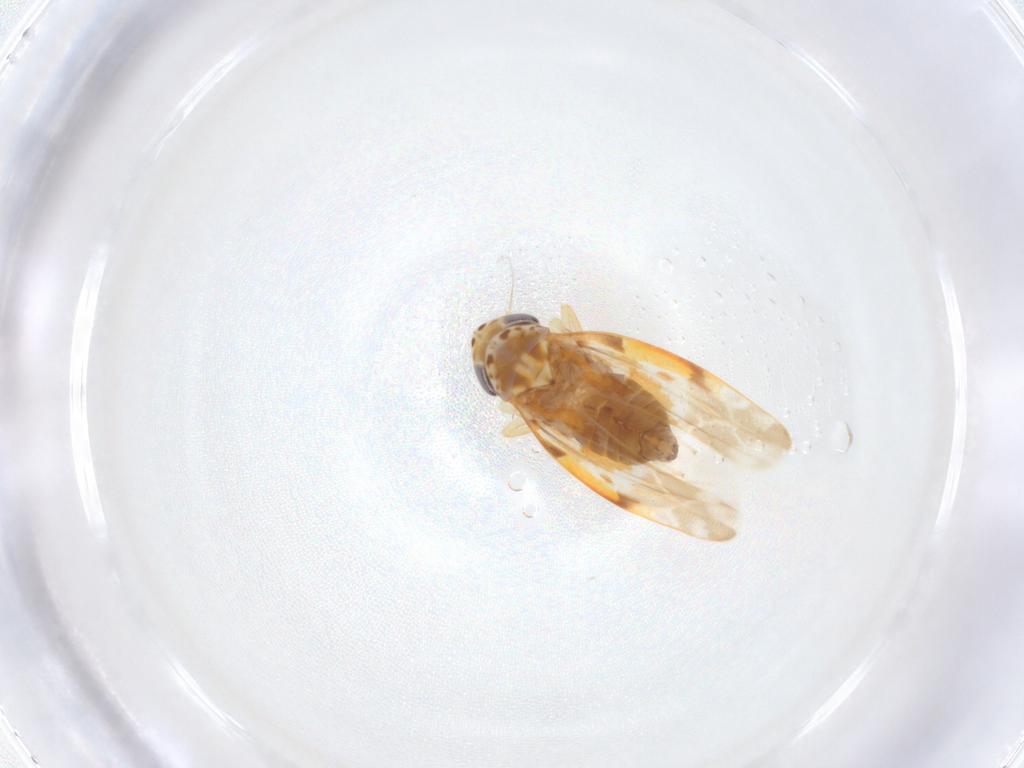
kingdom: Animalia
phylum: Arthropoda
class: Insecta
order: Hemiptera
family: Cicadellidae
